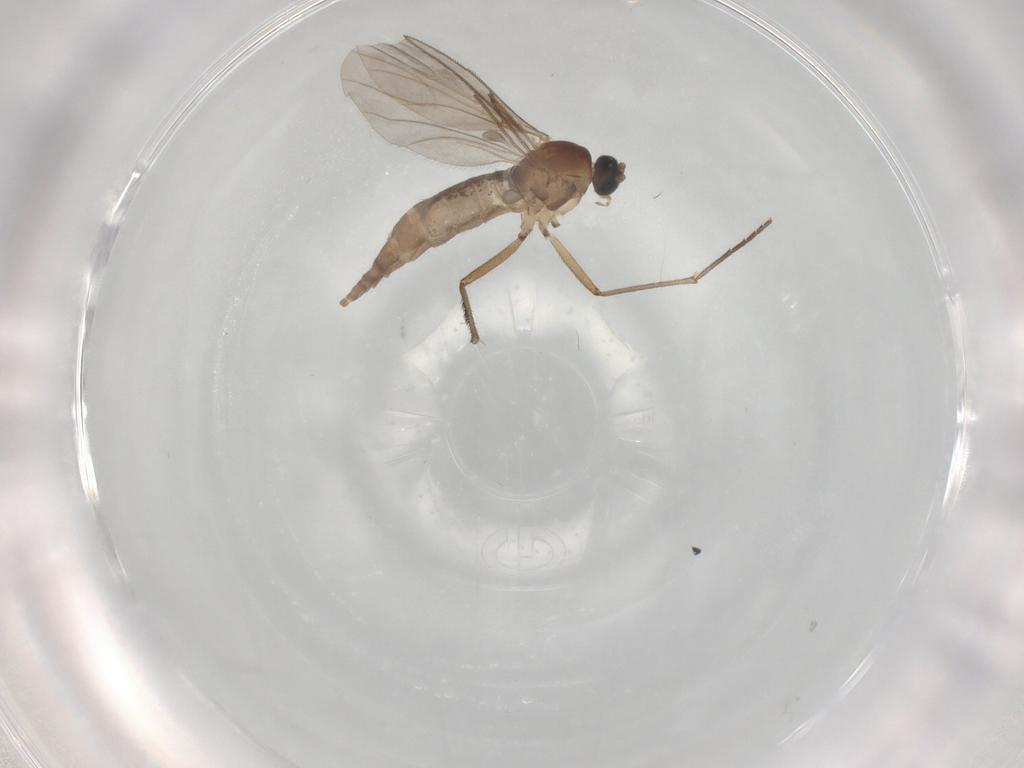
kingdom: Animalia
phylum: Arthropoda
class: Insecta
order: Diptera
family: Sciaridae
